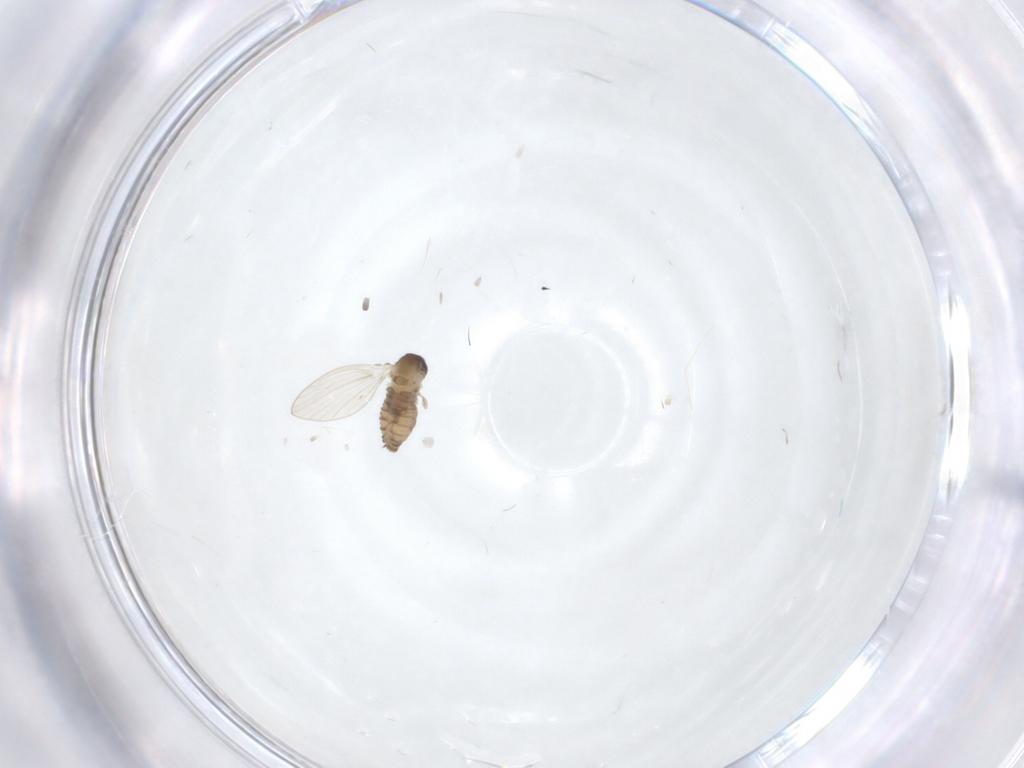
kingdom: Animalia
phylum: Arthropoda
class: Insecta
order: Diptera
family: Psychodidae
